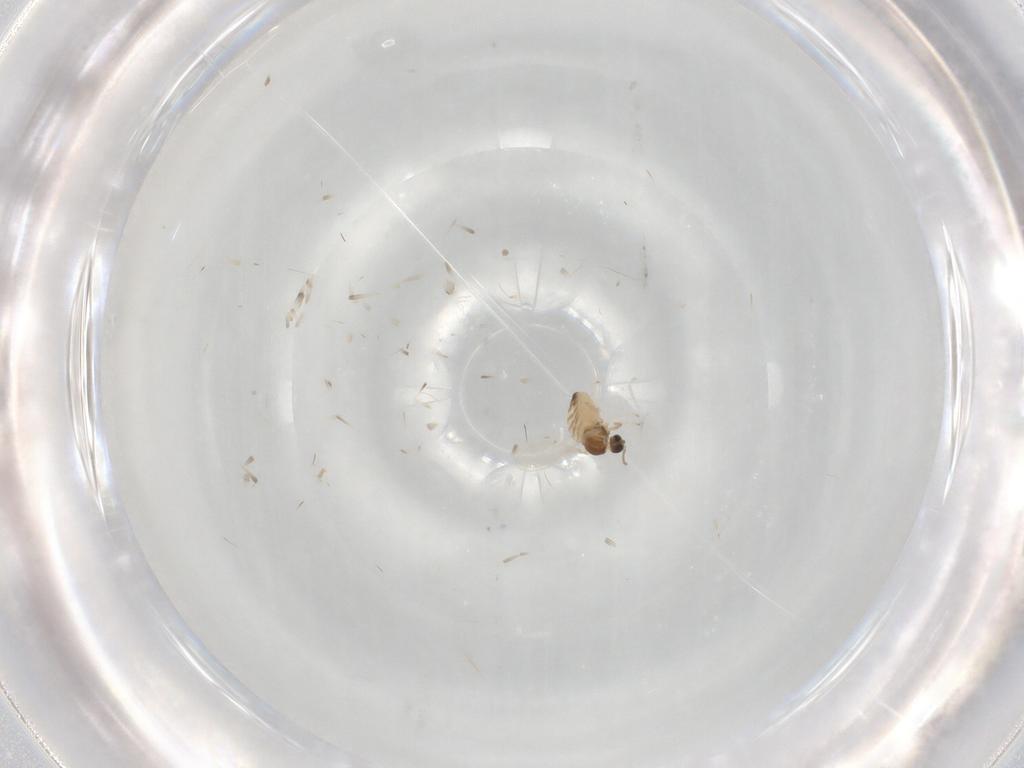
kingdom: Animalia
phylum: Arthropoda
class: Insecta
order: Diptera
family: Cecidomyiidae
